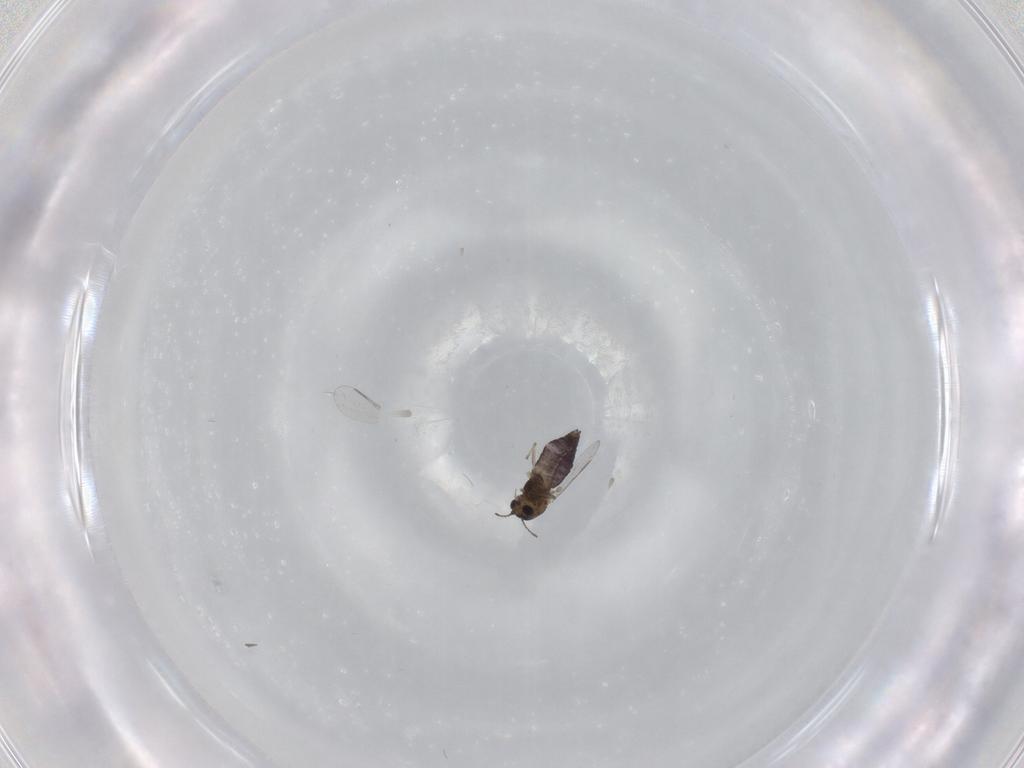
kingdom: Animalia
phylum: Arthropoda
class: Insecta
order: Diptera
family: Chironomidae
